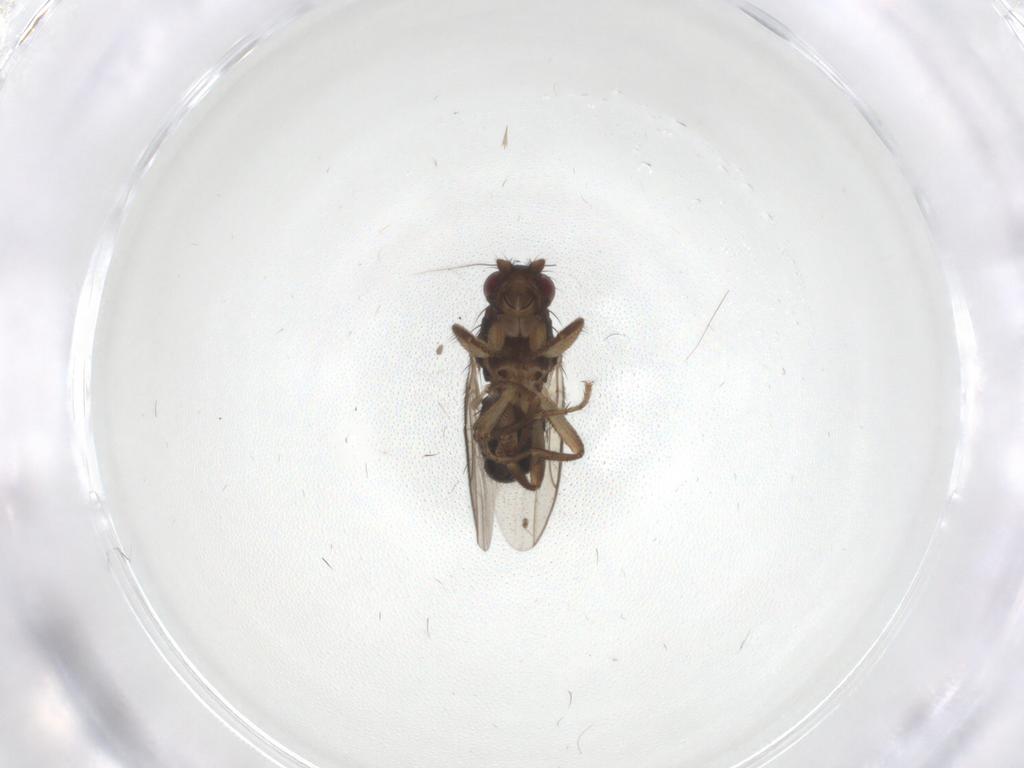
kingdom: Animalia
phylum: Arthropoda
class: Insecta
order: Diptera
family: Sphaeroceridae
